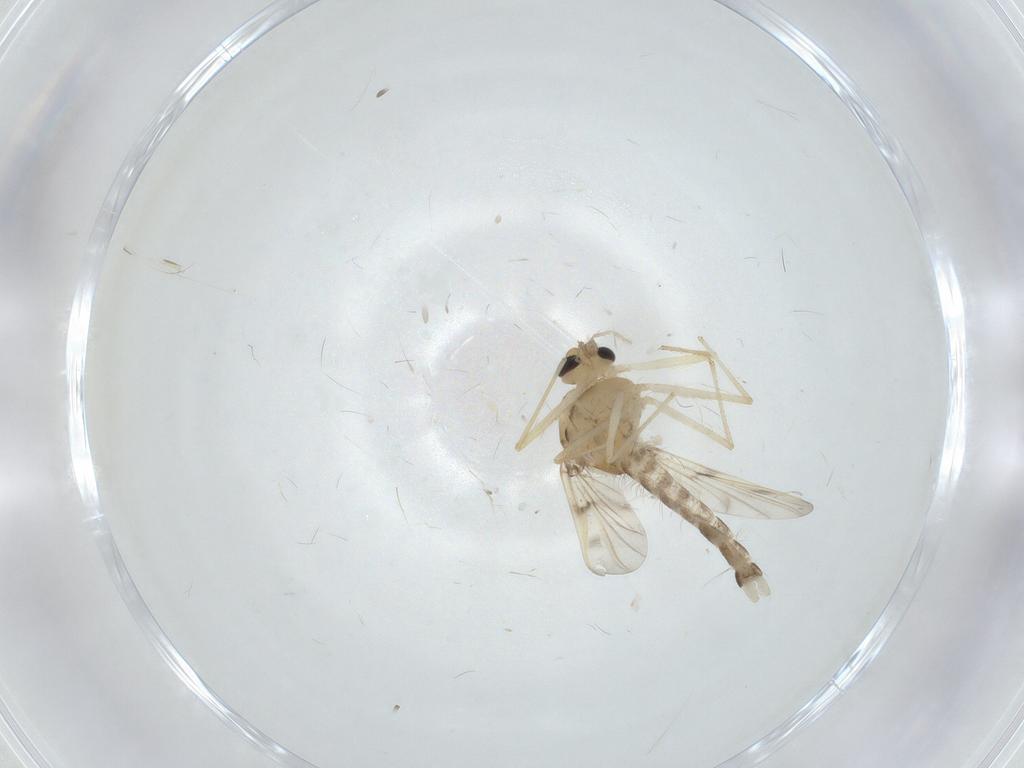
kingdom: Animalia
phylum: Arthropoda
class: Insecta
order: Diptera
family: Chironomidae
